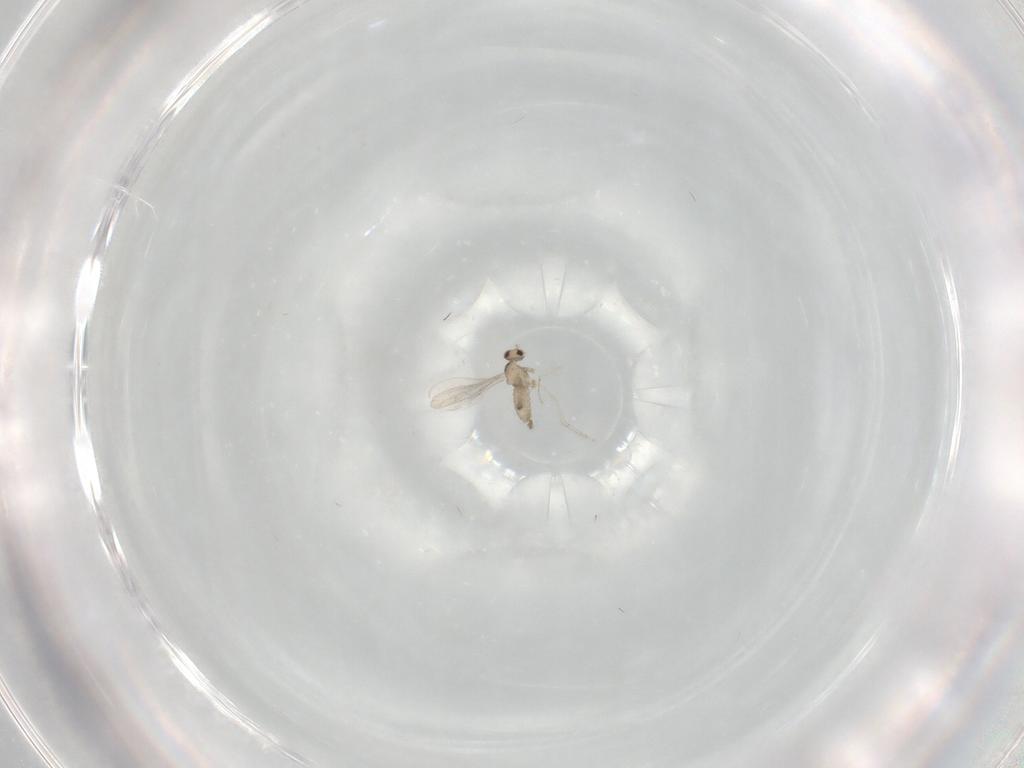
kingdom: Animalia
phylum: Arthropoda
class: Insecta
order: Diptera
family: Cecidomyiidae
